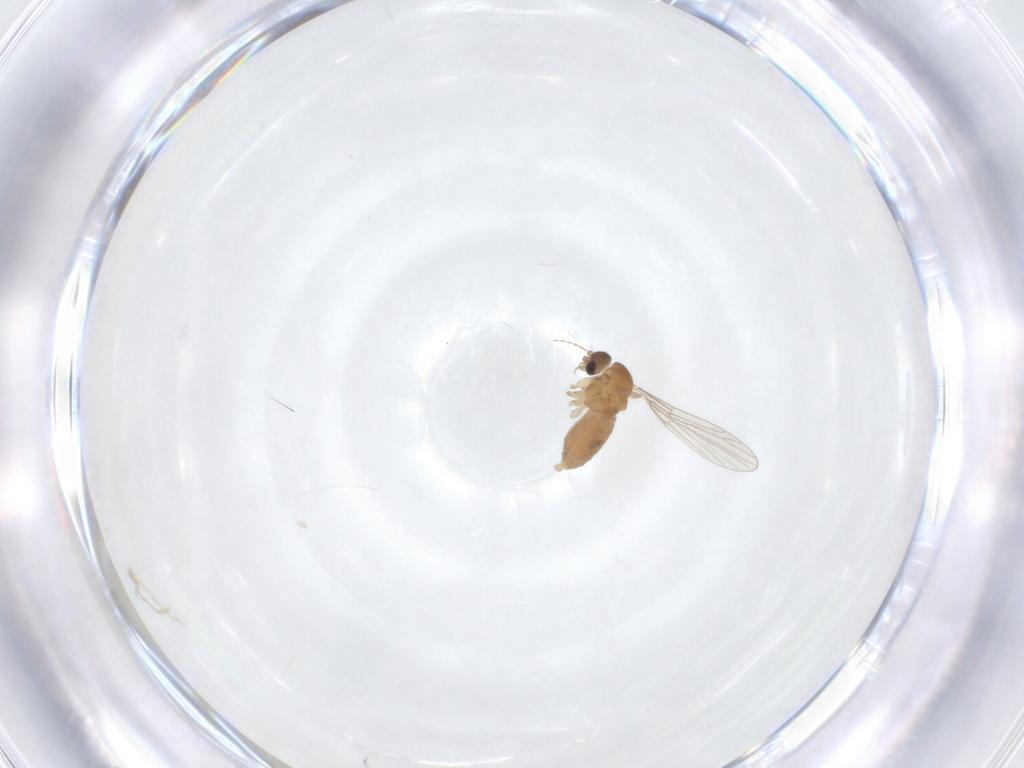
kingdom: Animalia
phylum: Arthropoda
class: Insecta
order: Diptera
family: Psychodidae
